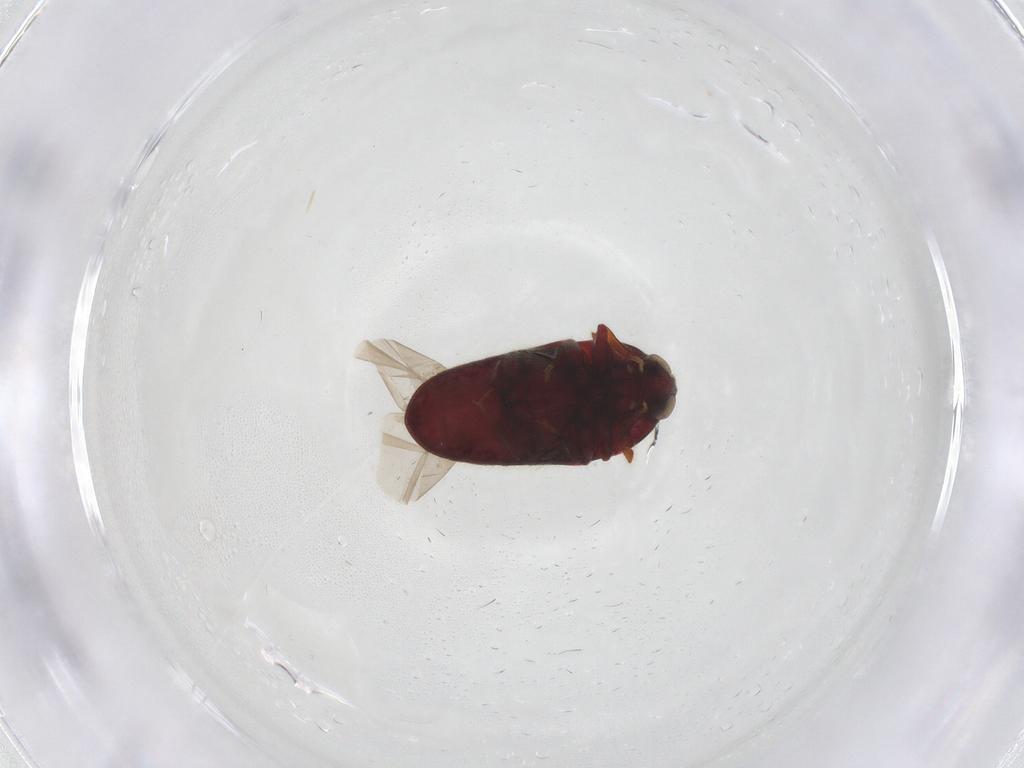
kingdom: Animalia
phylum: Arthropoda
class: Insecta
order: Coleoptera
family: Throscidae
